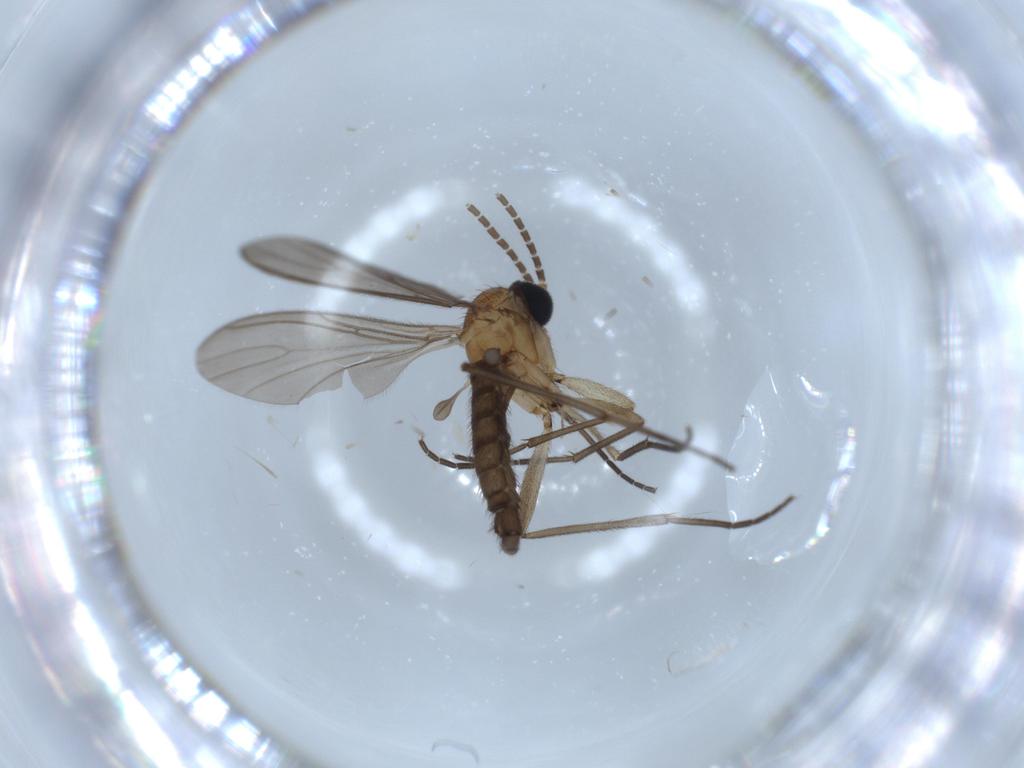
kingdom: Animalia
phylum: Arthropoda
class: Insecta
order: Diptera
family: Sciaridae
